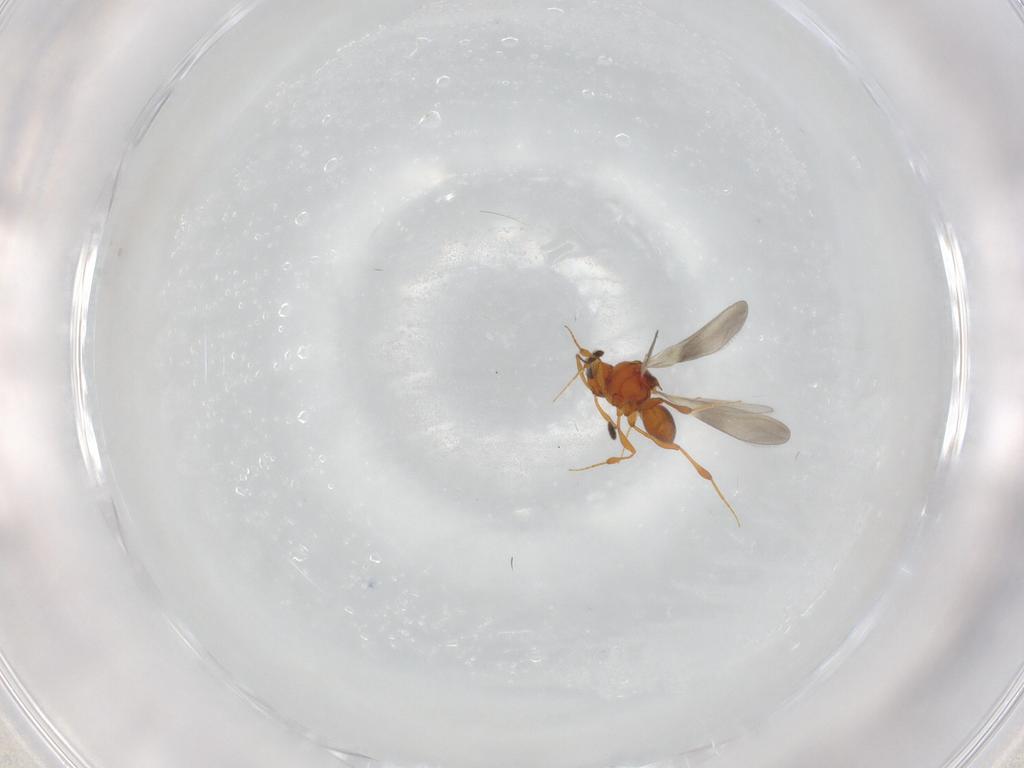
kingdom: Animalia
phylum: Arthropoda
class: Insecta
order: Hymenoptera
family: Platygastridae
